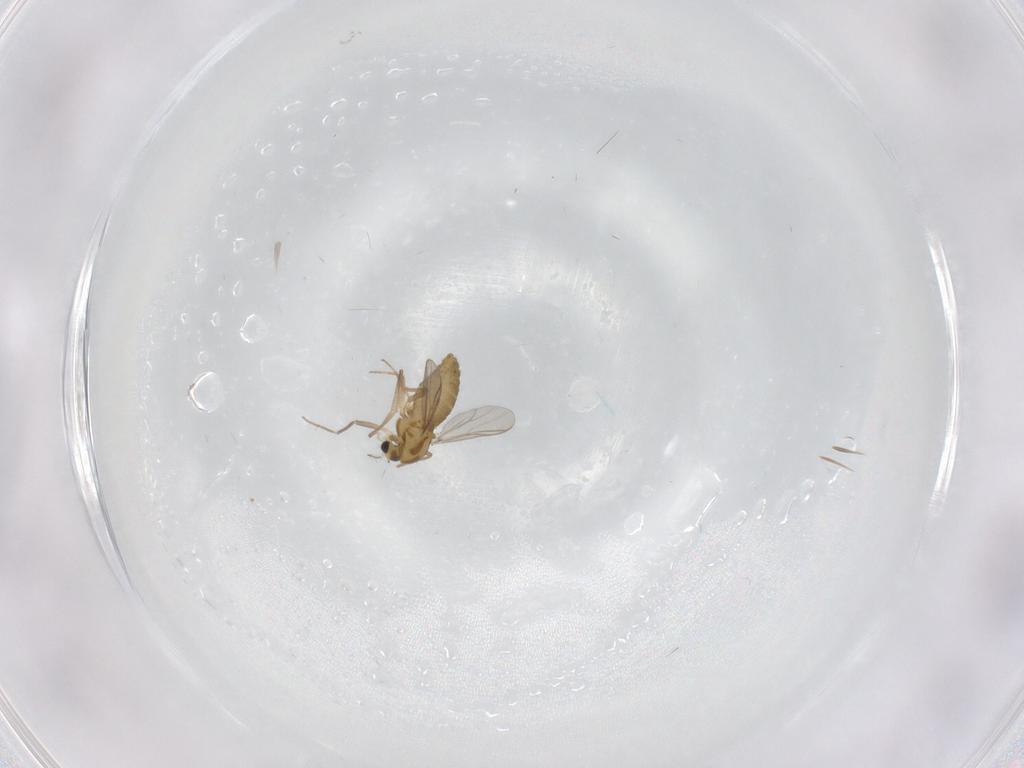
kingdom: Animalia
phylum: Arthropoda
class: Insecta
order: Diptera
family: Chironomidae
